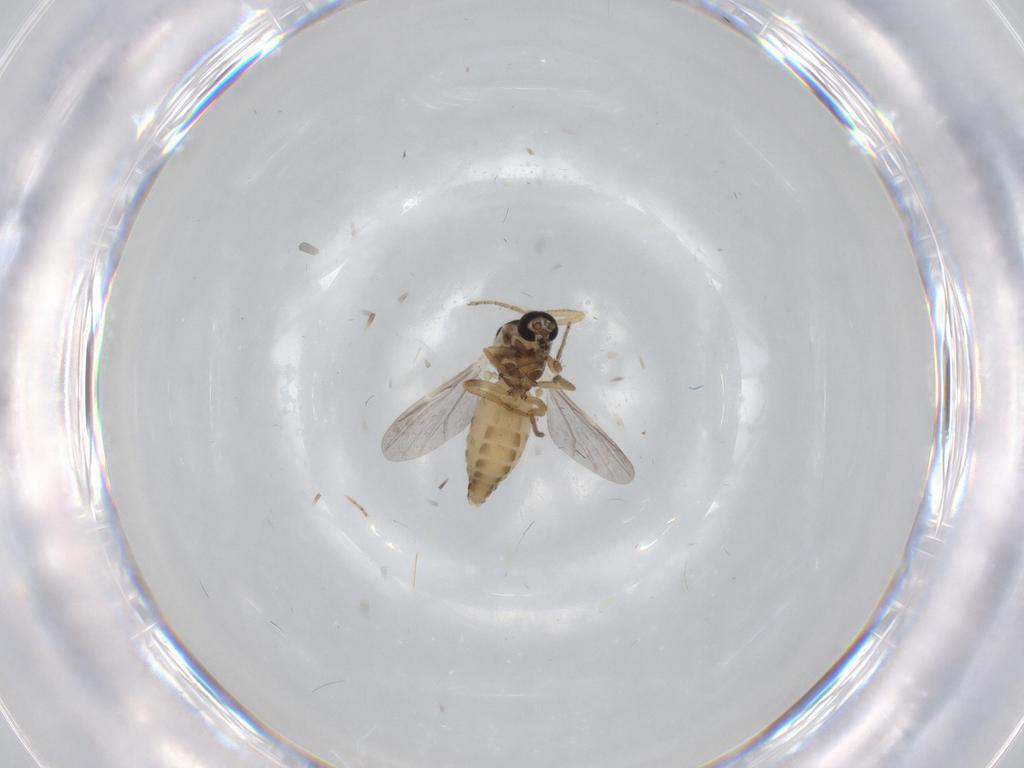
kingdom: Animalia
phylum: Arthropoda
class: Insecta
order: Diptera
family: Ceratopogonidae
